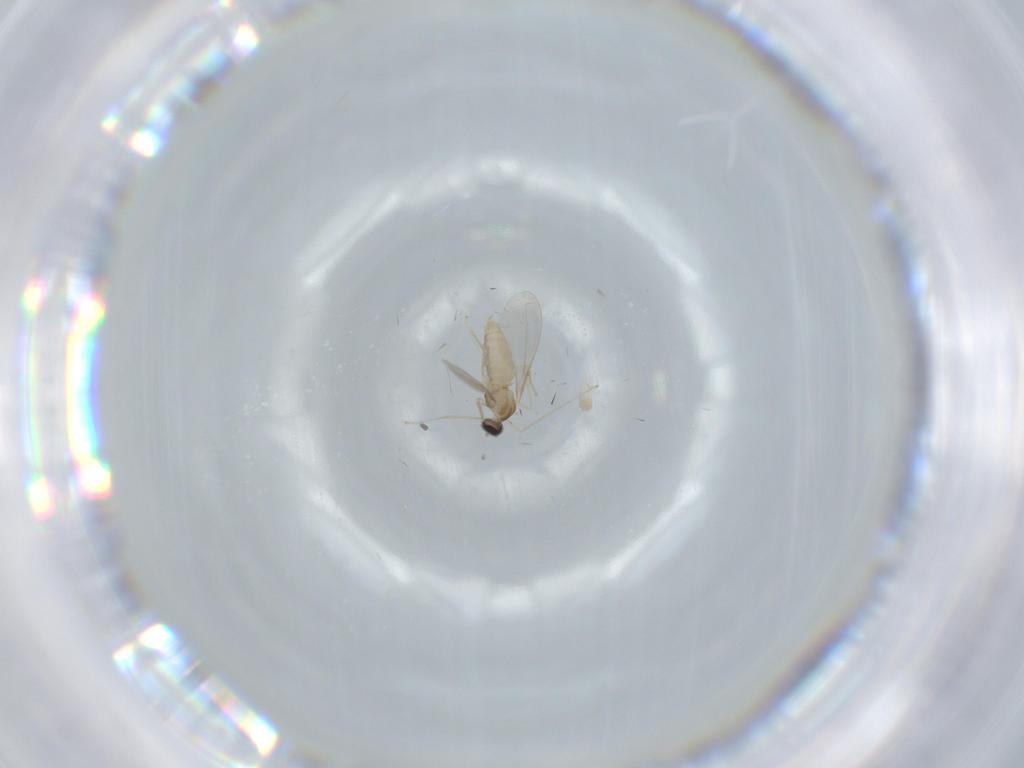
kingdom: Animalia
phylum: Arthropoda
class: Insecta
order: Diptera
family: Cecidomyiidae
